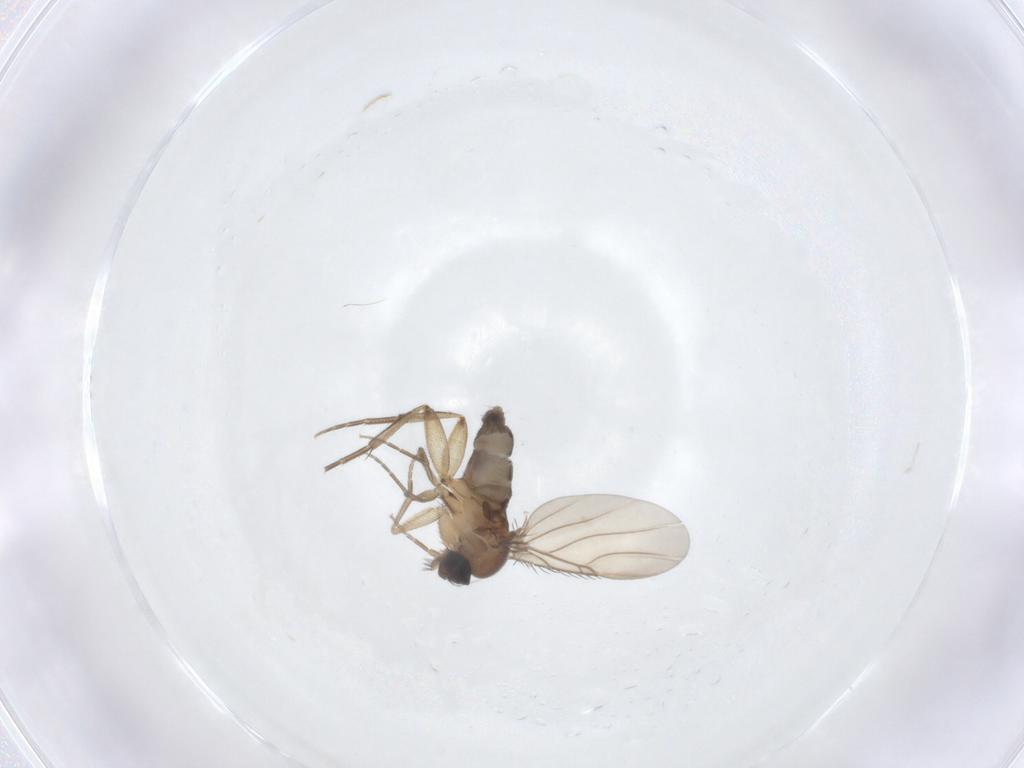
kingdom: Animalia
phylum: Arthropoda
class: Insecta
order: Diptera
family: Phoridae
